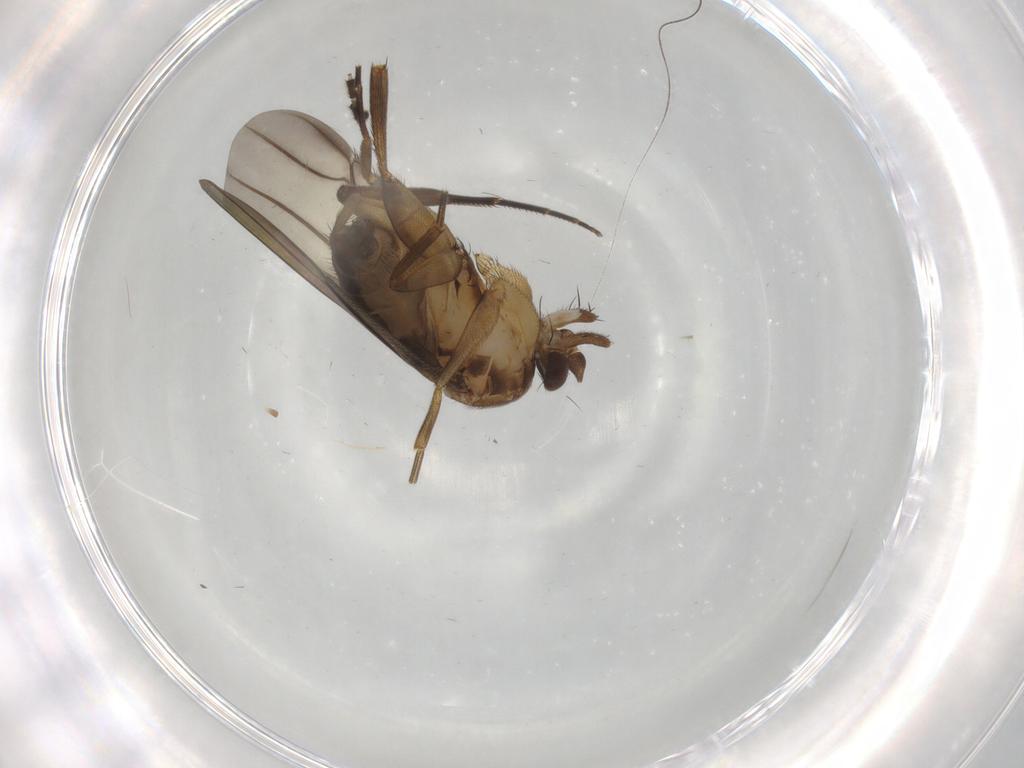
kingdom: Animalia
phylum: Arthropoda
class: Insecta
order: Diptera
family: Phoridae
